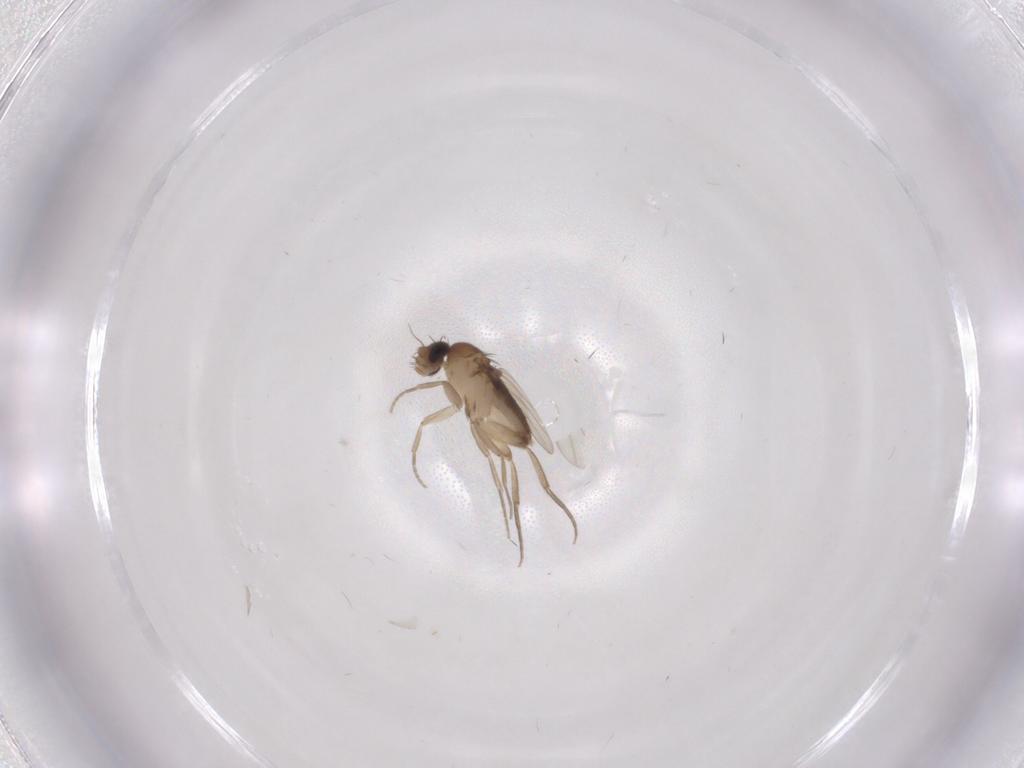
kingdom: Animalia
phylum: Arthropoda
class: Insecta
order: Diptera
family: Phoridae
